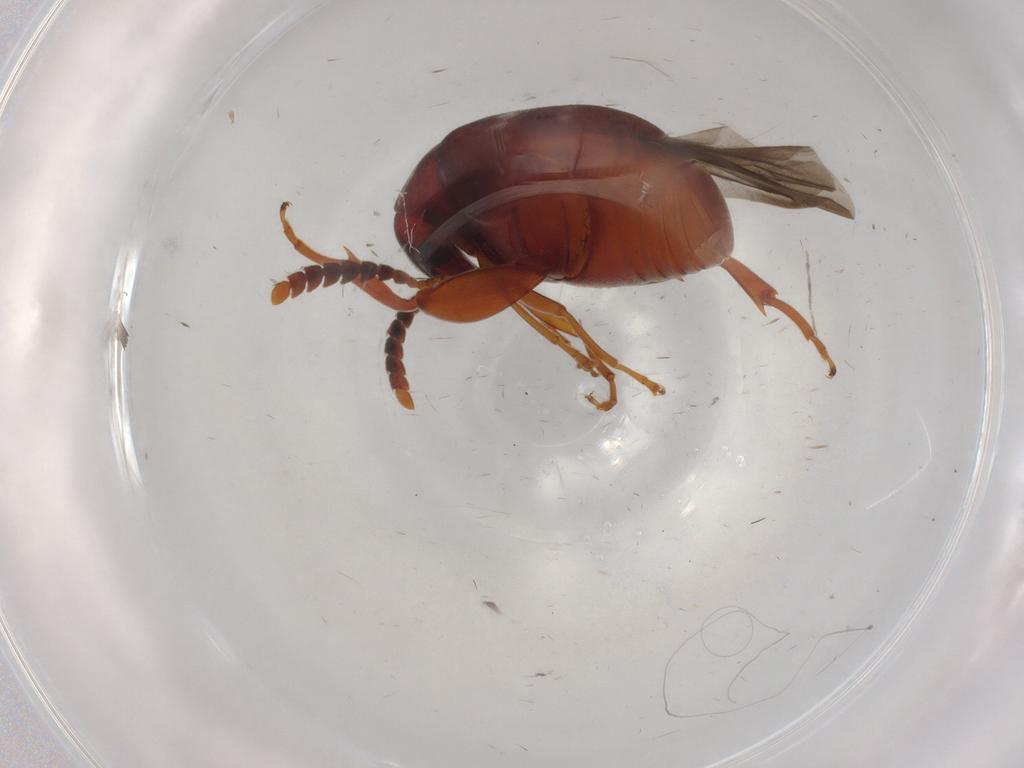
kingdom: Animalia
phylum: Arthropoda
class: Insecta
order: Coleoptera
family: Chrysomelidae
